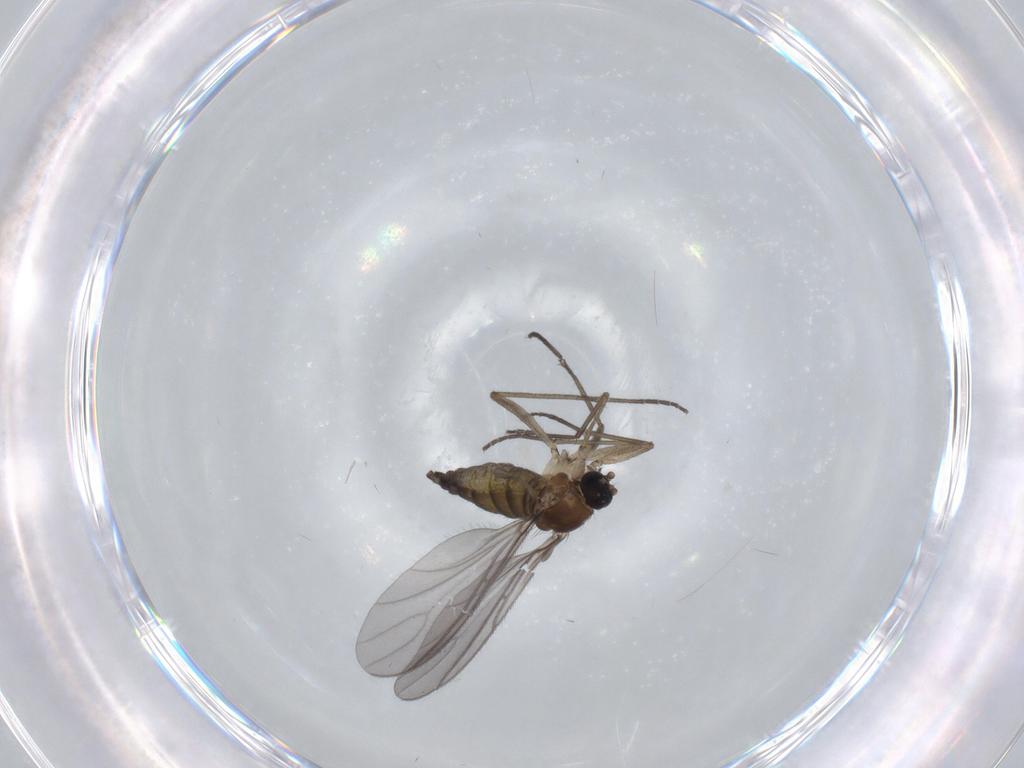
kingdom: Animalia
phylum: Arthropoda
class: Insecta
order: Diptera
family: Sciaridae
